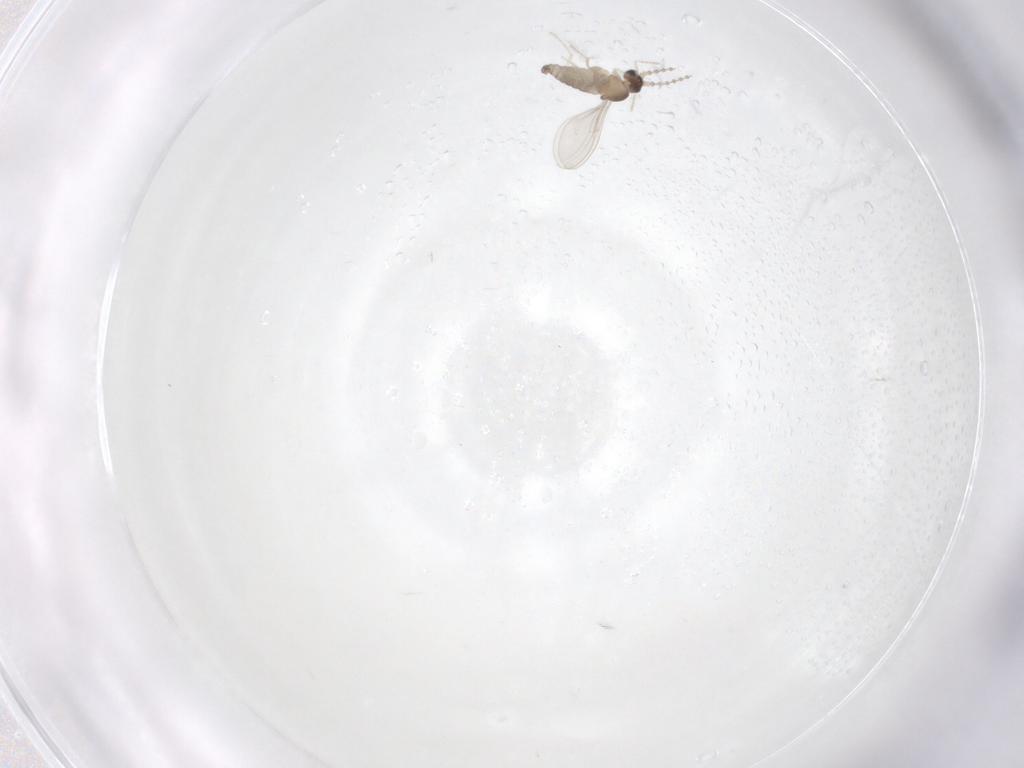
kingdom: Animalia
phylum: Arthropoda
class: Insecta
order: Diptera
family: Cecidomyiidae
